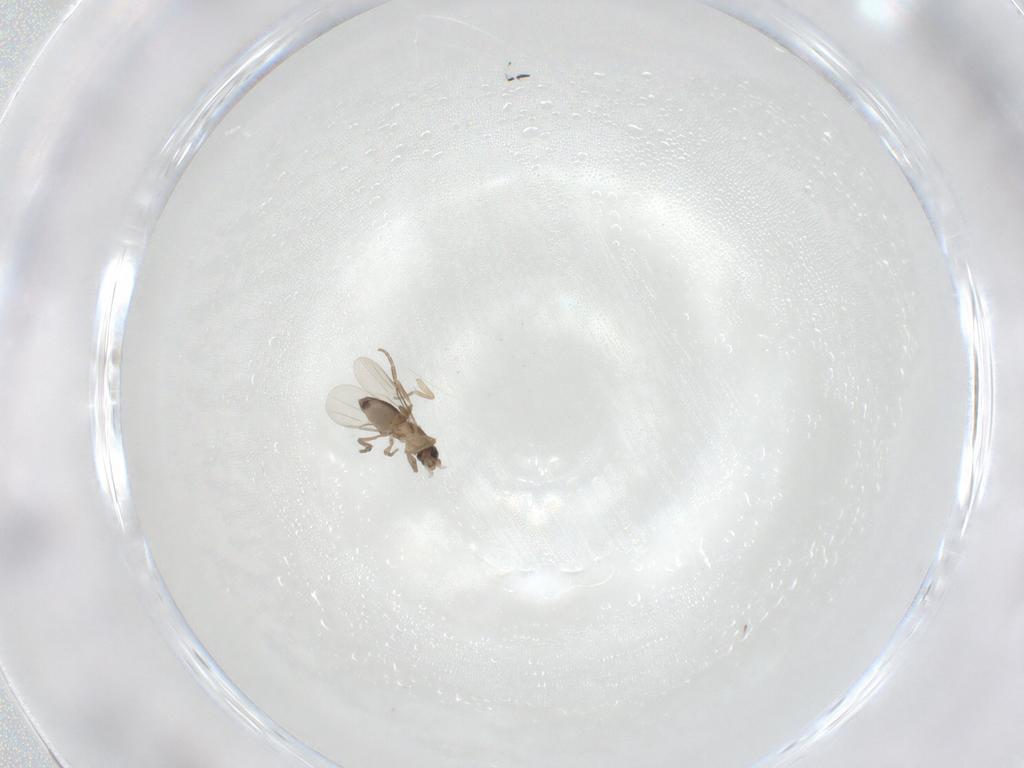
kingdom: Animalia
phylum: Arthropoda
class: Insecta
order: Diptera
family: Phoridae
